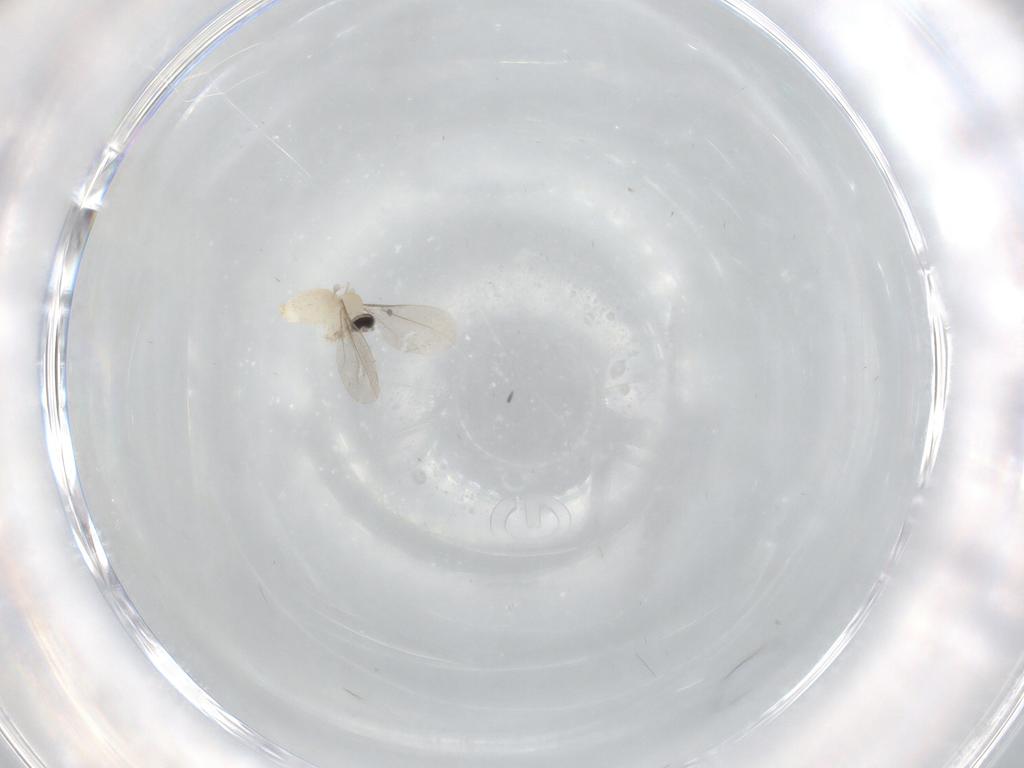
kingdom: Animalia
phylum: Arthropoda
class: Insecta
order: Diptera
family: Cecidomyiidae
